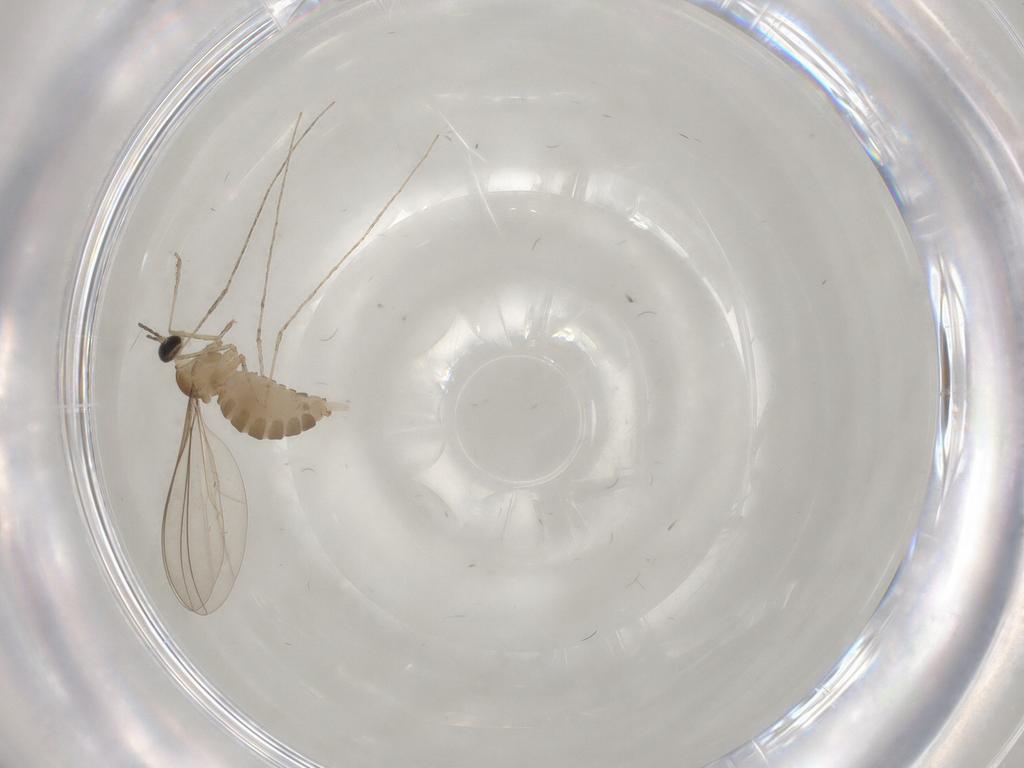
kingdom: Animalia
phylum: Arthropoda
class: Insecta
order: Diptera
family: Cecidomyiidae
